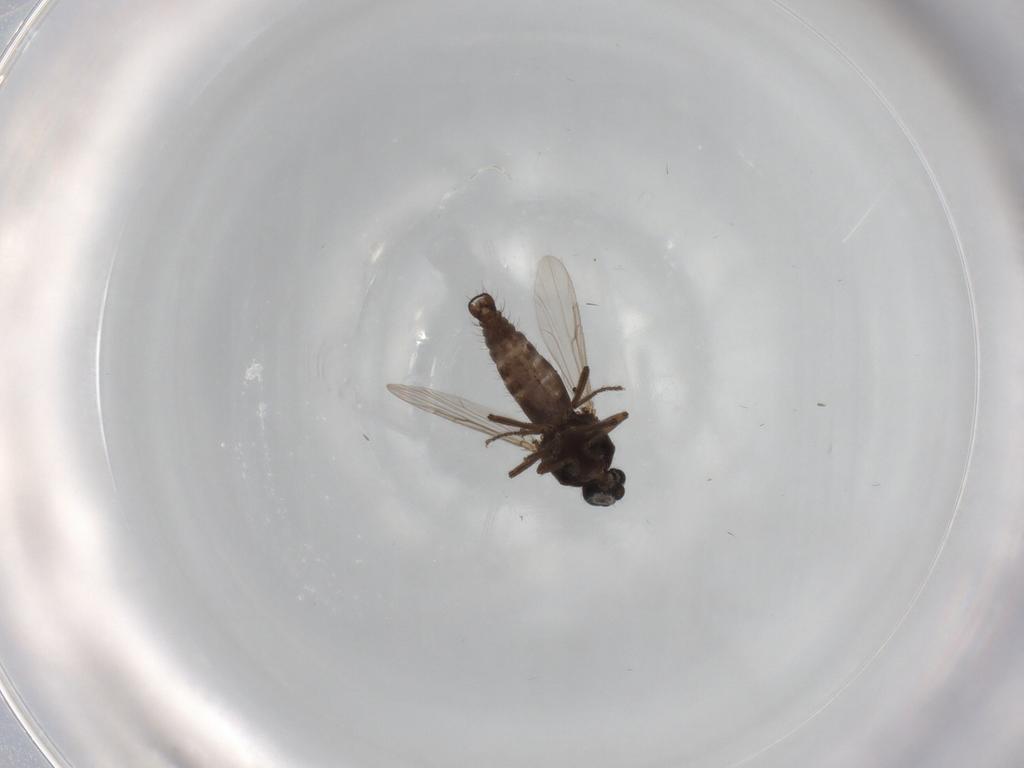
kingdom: Animalia
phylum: Arthropoda
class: Insecta
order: Diptera
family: Ceratopogonidae
